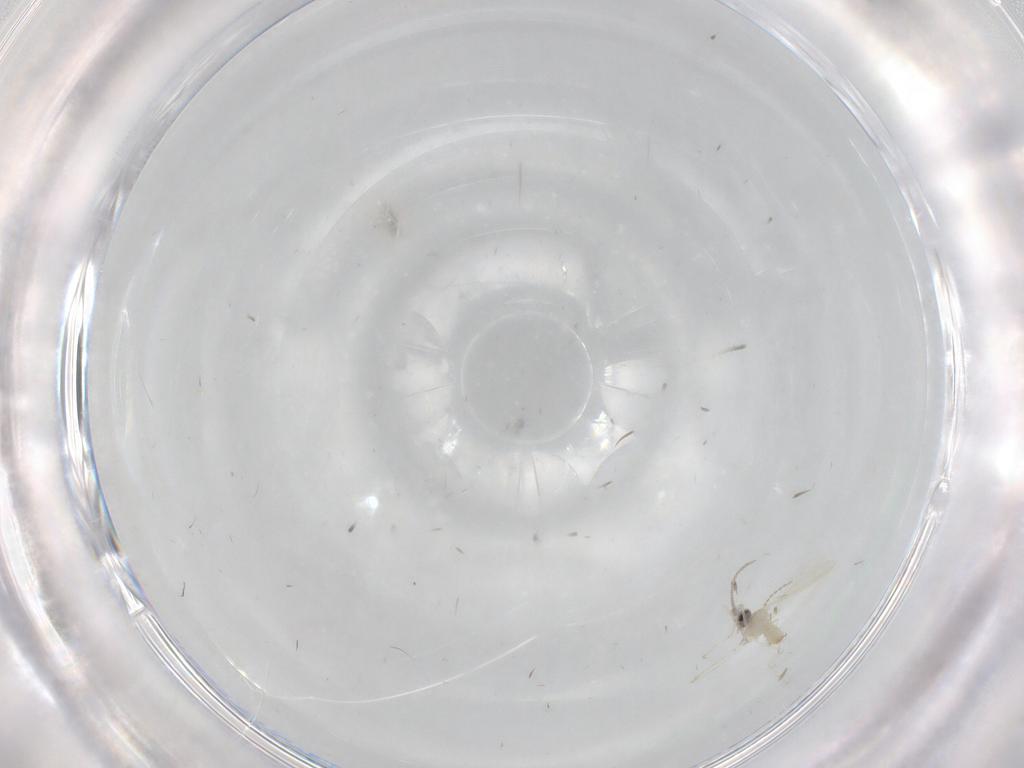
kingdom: Animalia
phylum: Arthropoda
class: Insecta
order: Diptera
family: Cecidomyiidae
